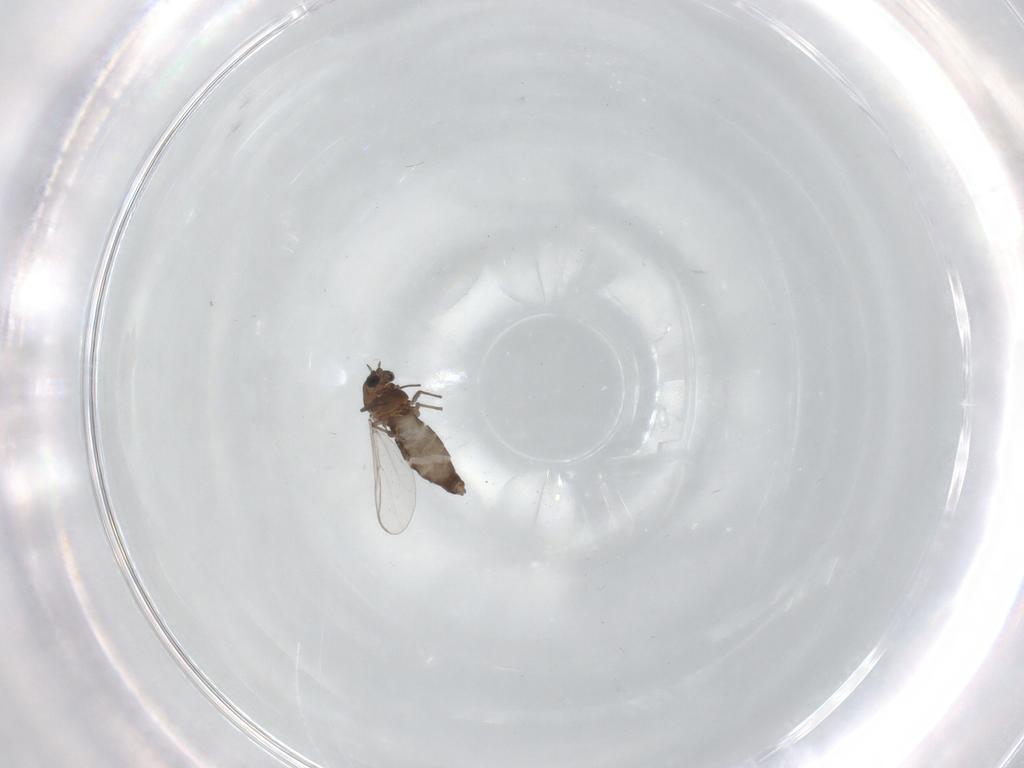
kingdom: Animalia
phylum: Arthropoda
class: Insecta
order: Diptera
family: Chironomidae
